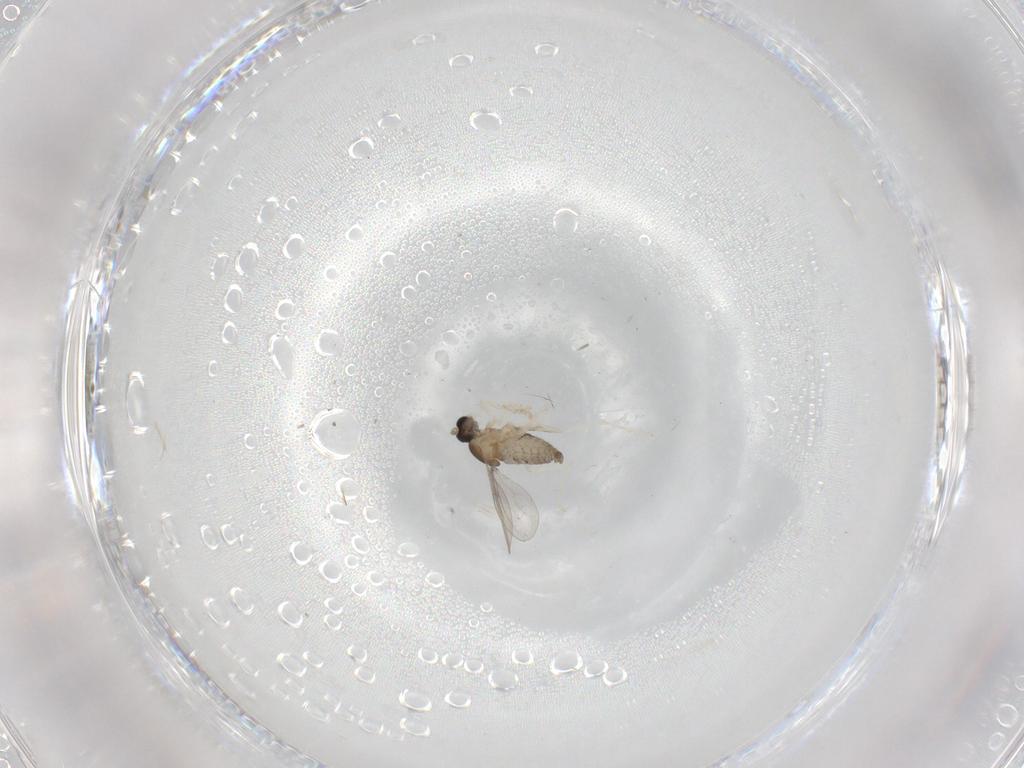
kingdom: Animalia
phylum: Arthropoda
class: Insecta
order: Diptera
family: Cecidomyiidae
